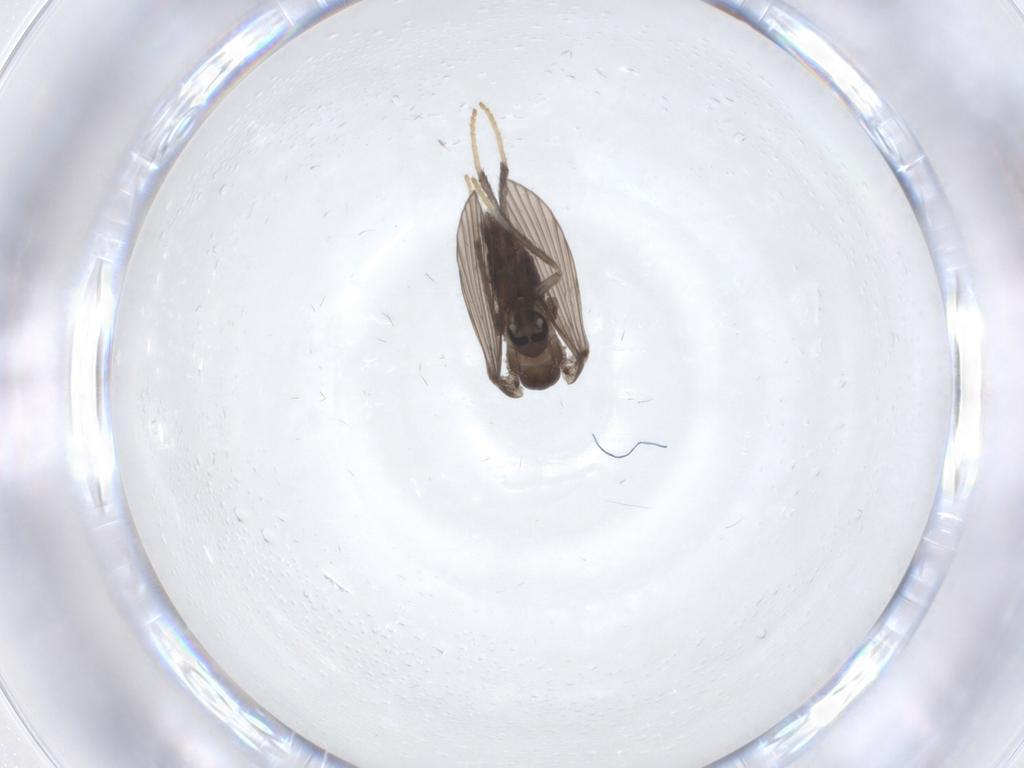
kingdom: Animalia
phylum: Arthropoda
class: Insecta
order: Diptera
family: Psychodidae
